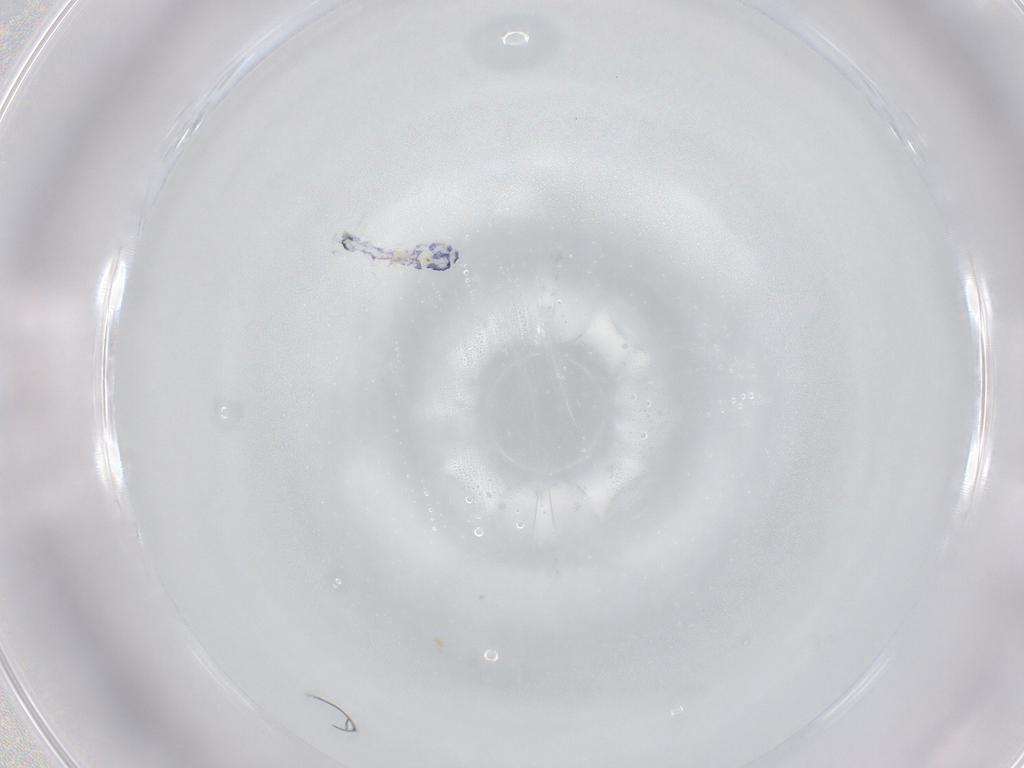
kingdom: Animalia
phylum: Arthropoda
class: Collembola
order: Entomobryomorpha
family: Entomobryidae
